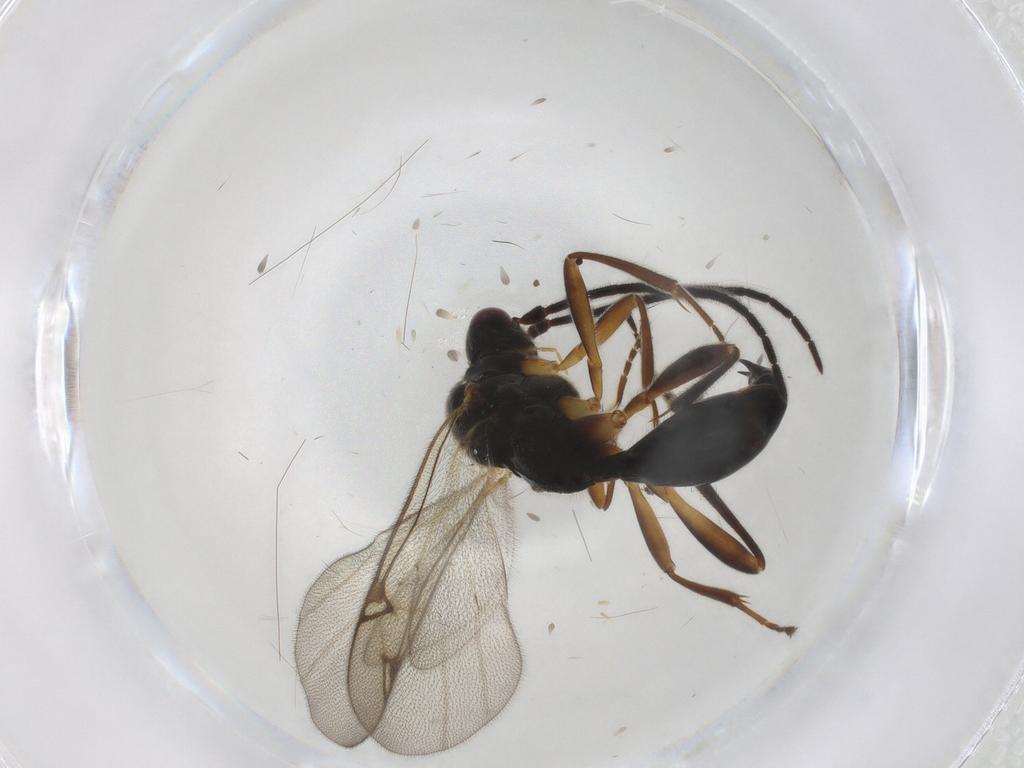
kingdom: Animalia
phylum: Arthropoda
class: Insecta
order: Hymenoptera
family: Proctotrupidae
